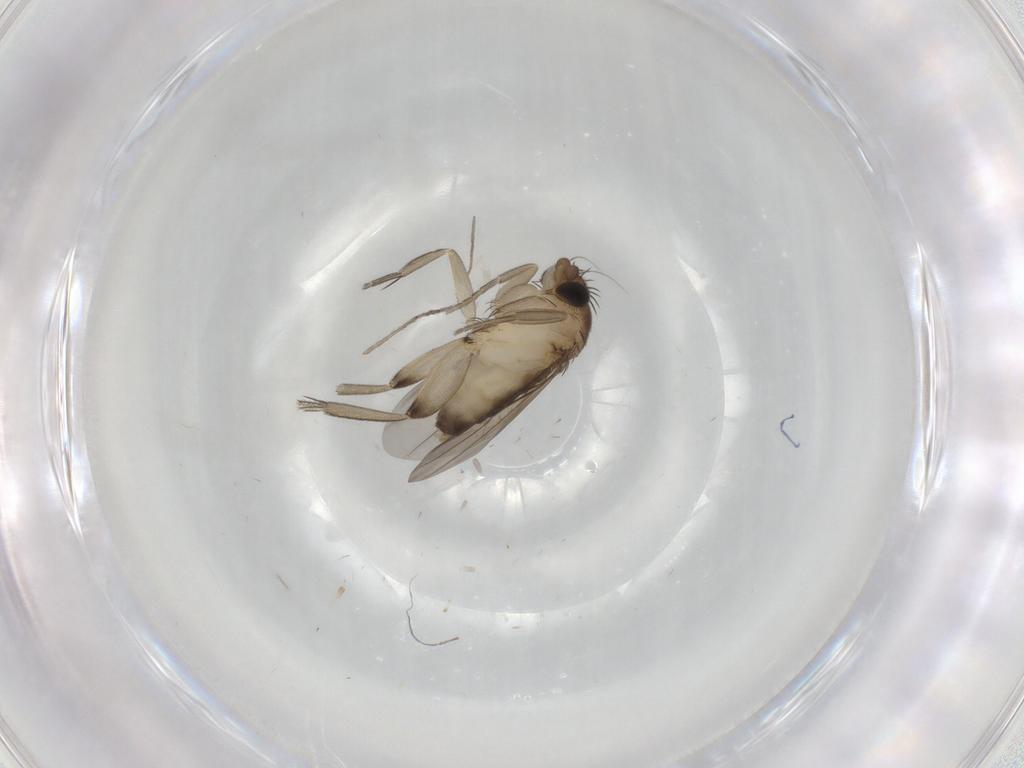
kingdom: Animalia
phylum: Arthropoda
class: Insecta
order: Diptera
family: Phoridae
